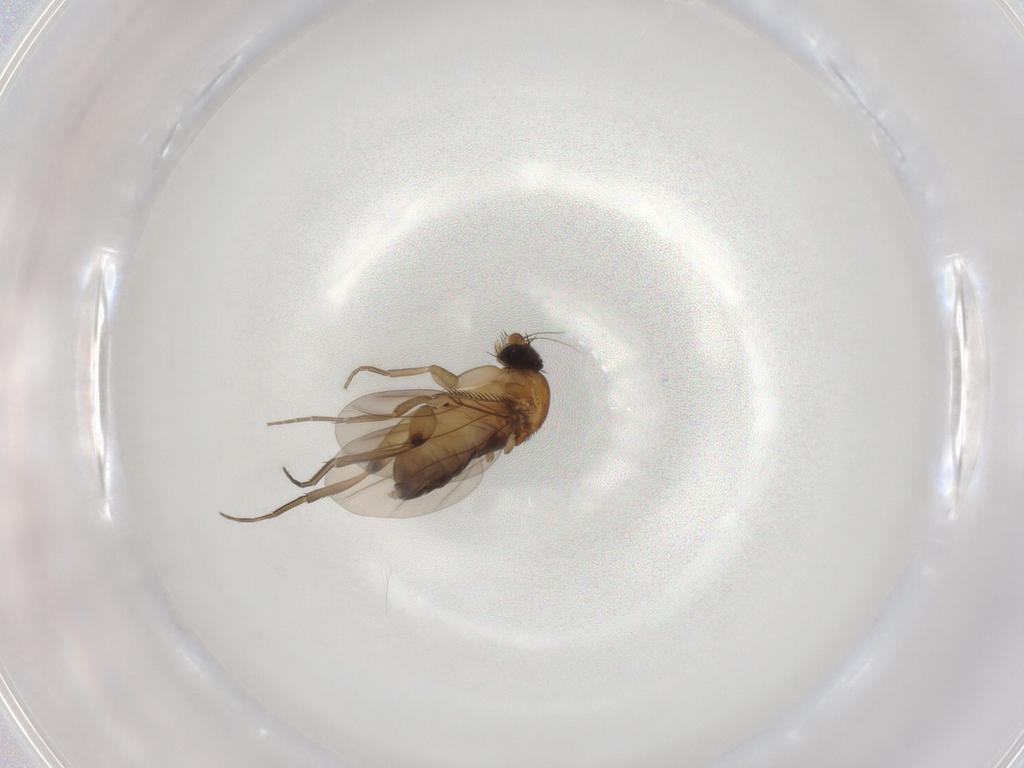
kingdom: Animalia
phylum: Arthropoda
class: Insecta
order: Diptera
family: Phoridae
